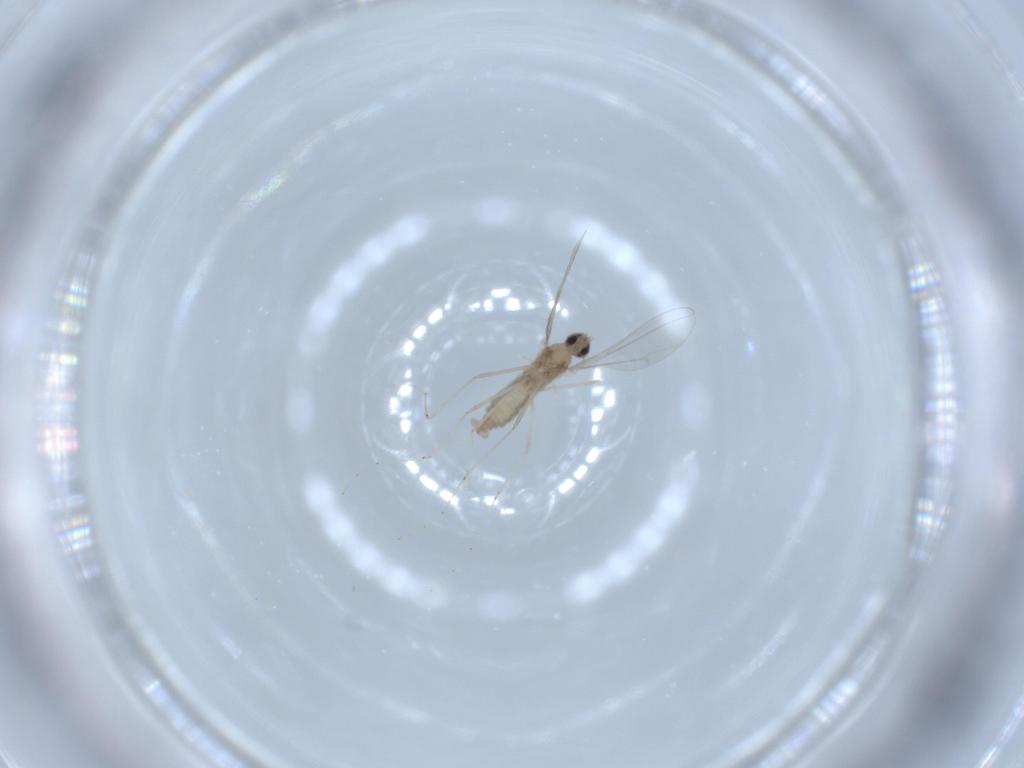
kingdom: Animalia
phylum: Arthropoda
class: Insecta
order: Diptera
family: Cecidomyiidae
